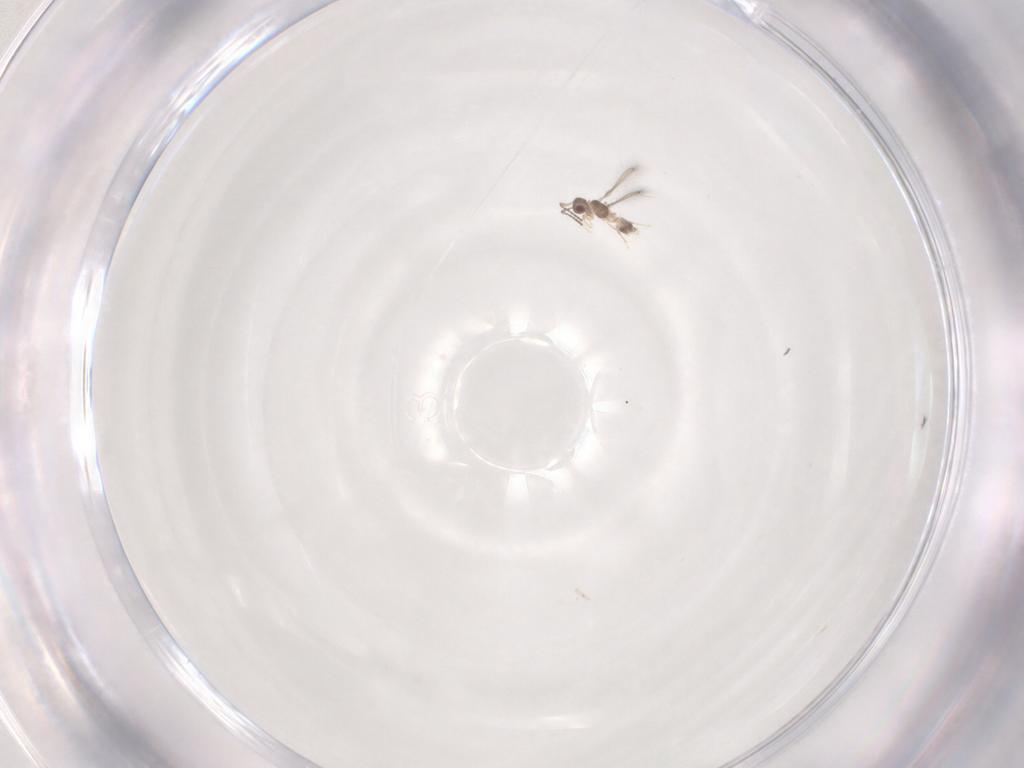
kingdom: Animalia
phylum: Arthropoda
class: Insecta
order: Hymenoptera
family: Mymaridae
